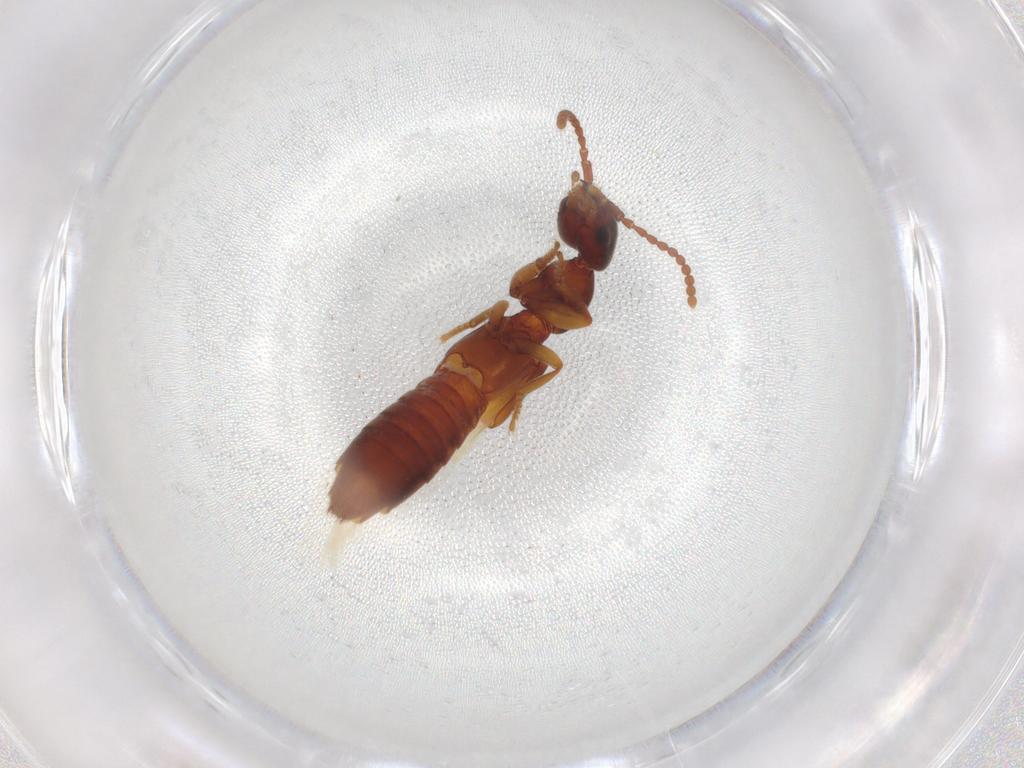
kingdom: Animalia
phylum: Arthropoda
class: Insecta
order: Coleoptera
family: Staphylinidae
